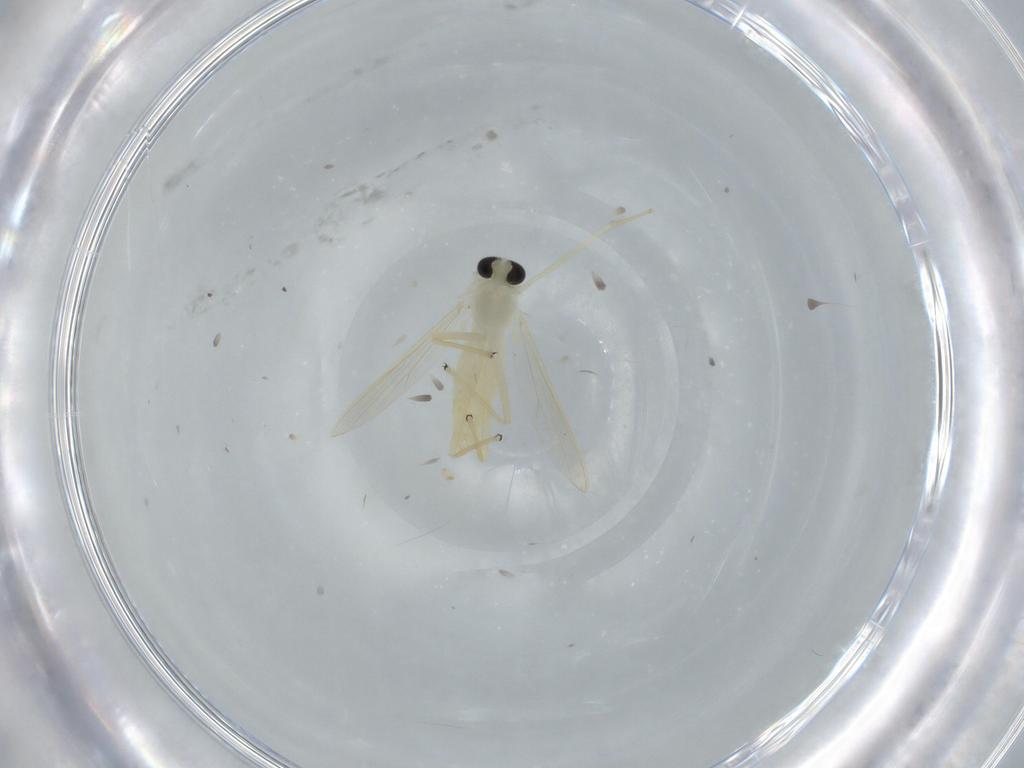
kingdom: Animalia
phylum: Arthropoda
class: Insecta
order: Diptera
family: Chironomidae
